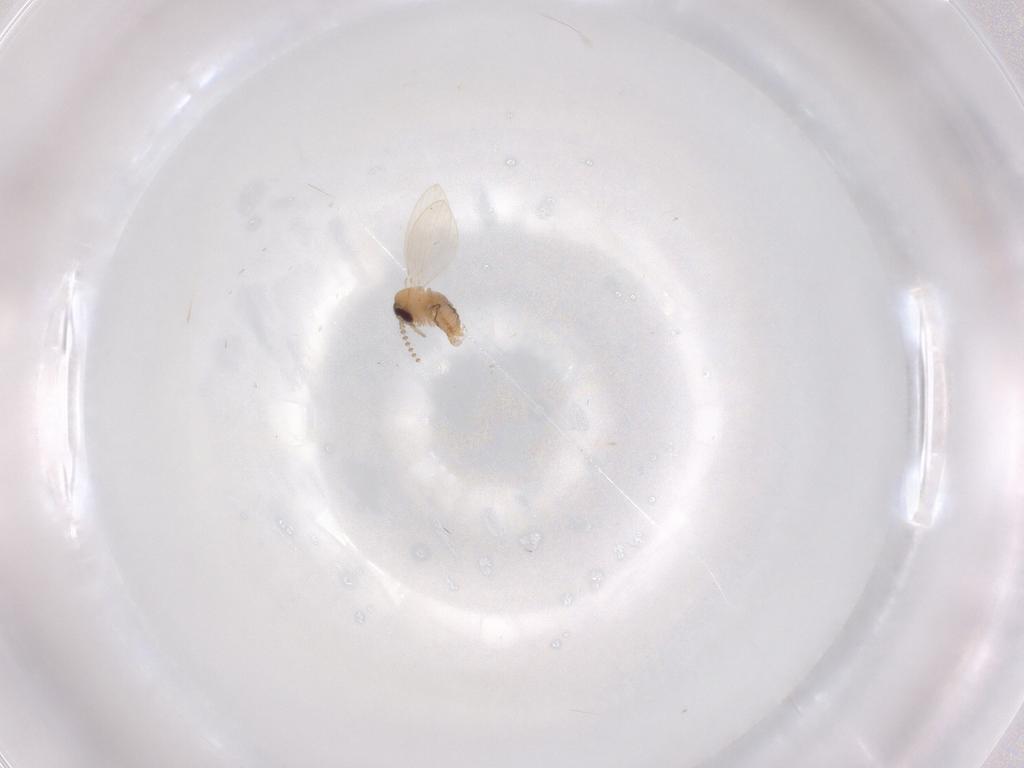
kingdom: Animalia
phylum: Arthropoda
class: Insecta
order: Diptera
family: Psychodidae
